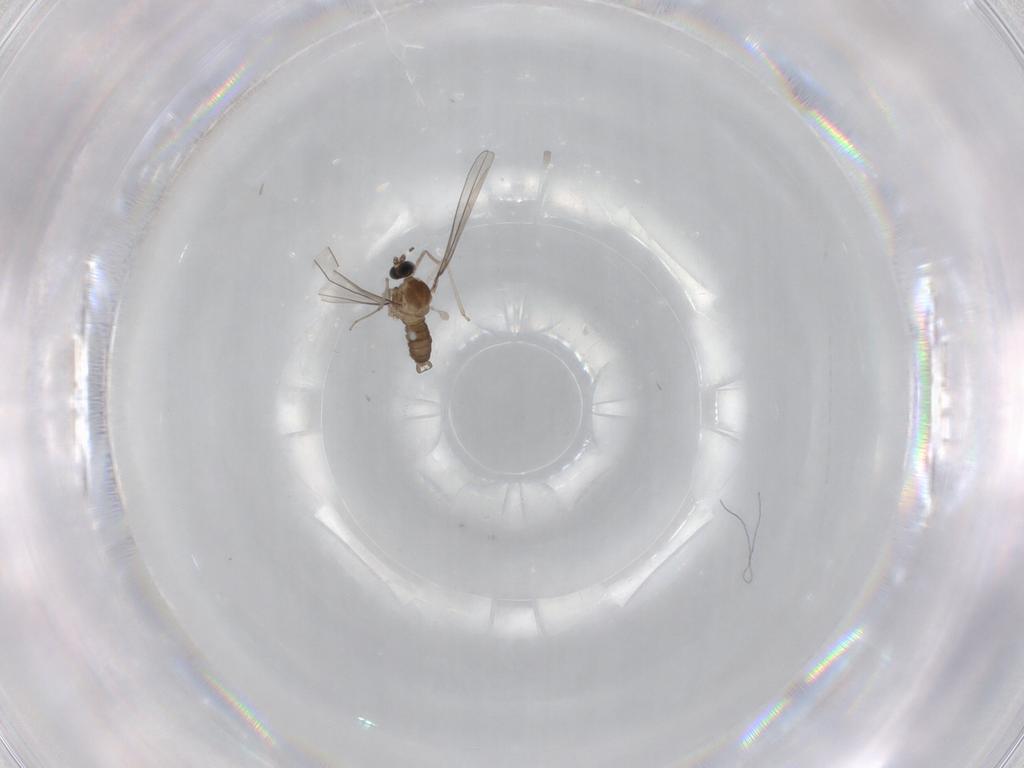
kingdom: Animalia
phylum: Arthropoda
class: Insecta
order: Diptera
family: Cecidomyiidae
